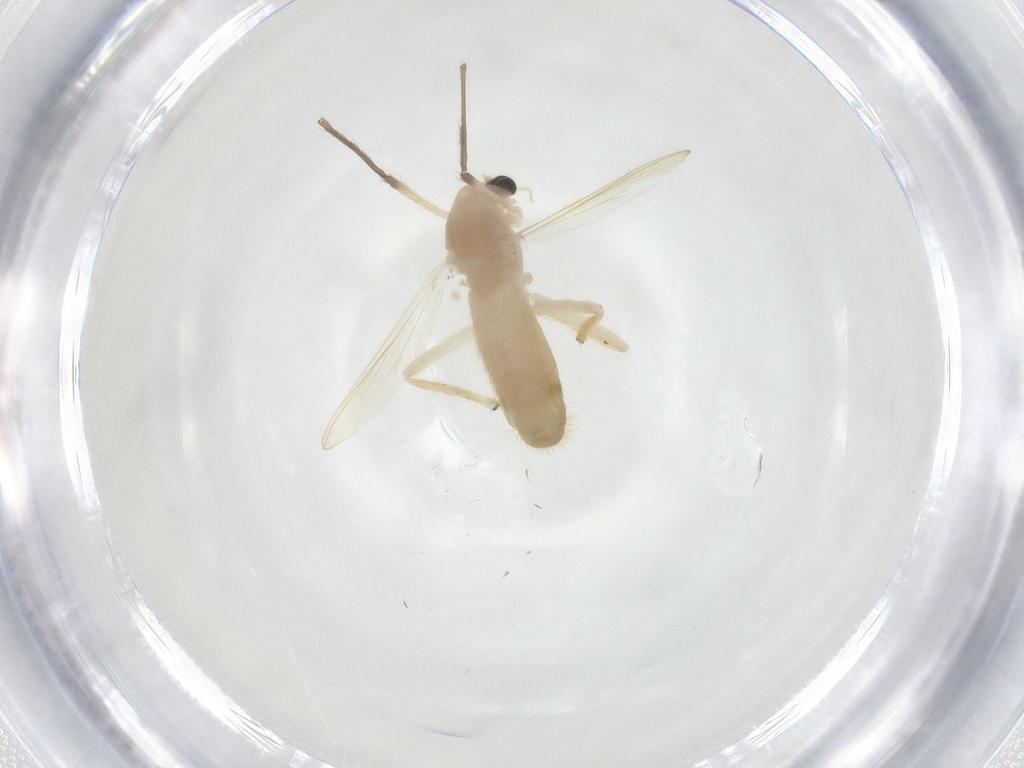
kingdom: Animalia
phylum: Arthropoda
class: Insecta
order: Diptera
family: Chironomidae
